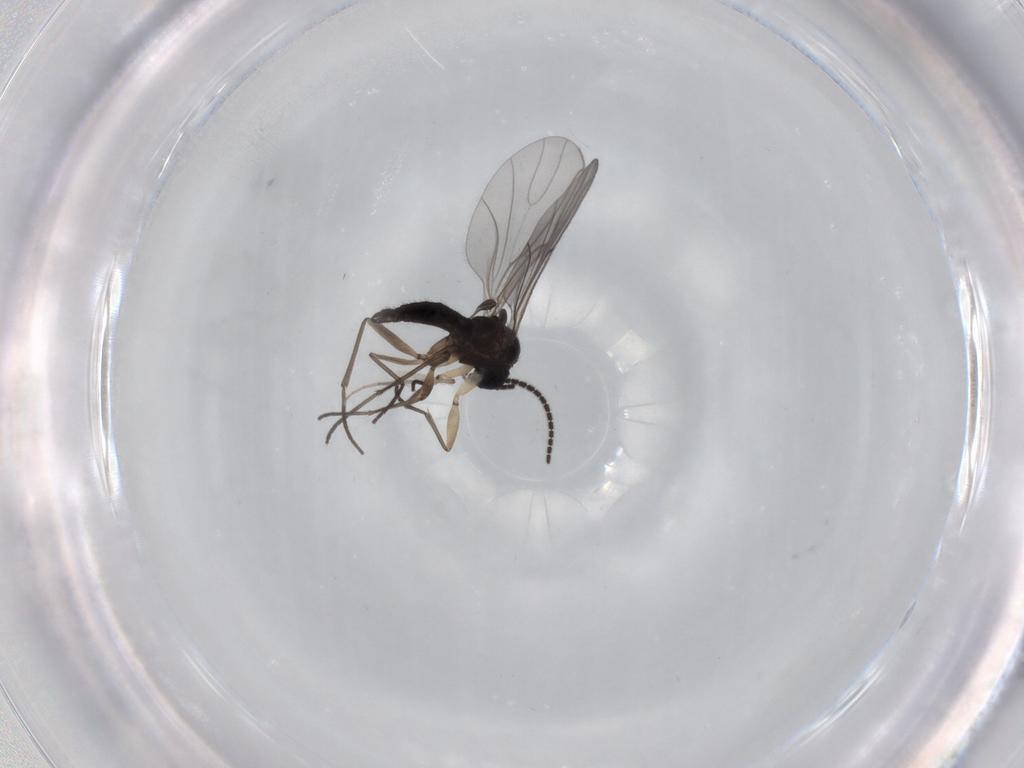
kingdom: Animalia
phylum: Arthropoda
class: Insecta
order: Diptera
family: Sciaridae
